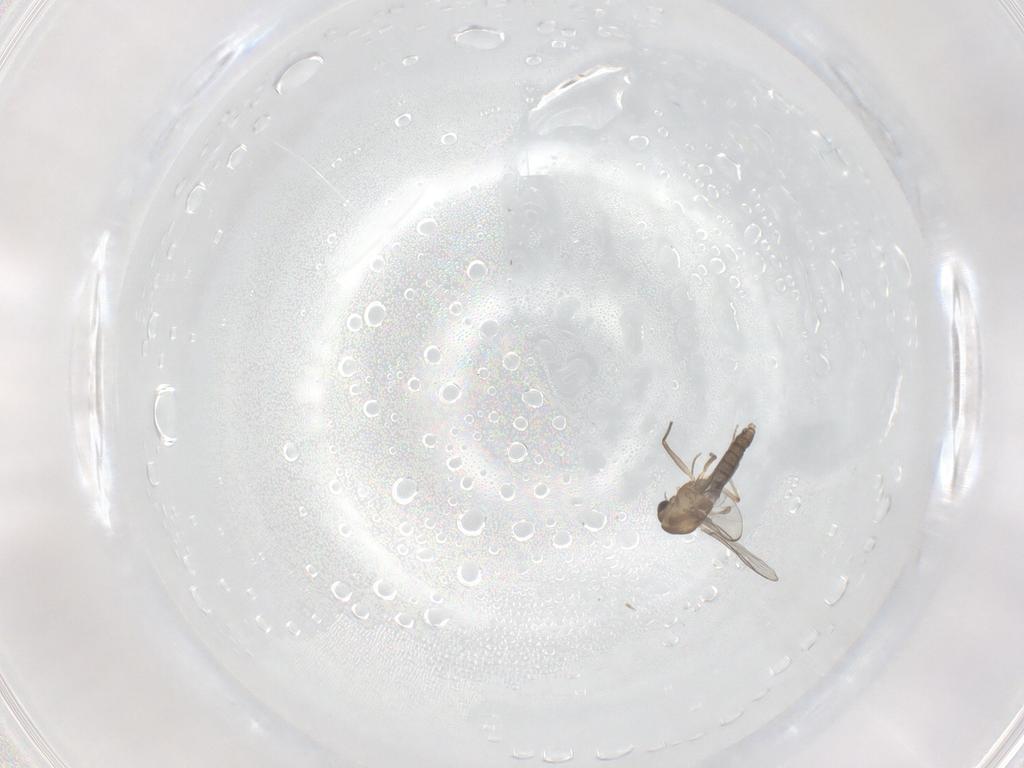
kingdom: Animalia
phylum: Arthropoda
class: Insecta
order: Diptera
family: Chironomidae
